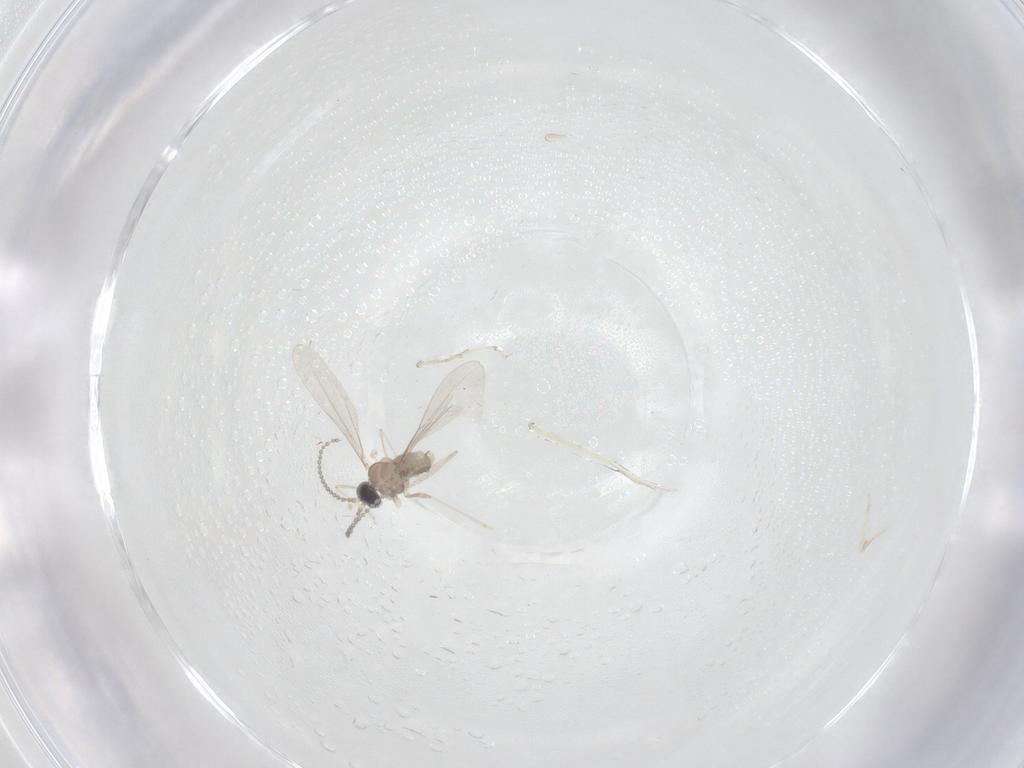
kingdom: Animalia
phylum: Arthropoda
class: Insecta
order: Diptera
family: Cecidomyiidae
